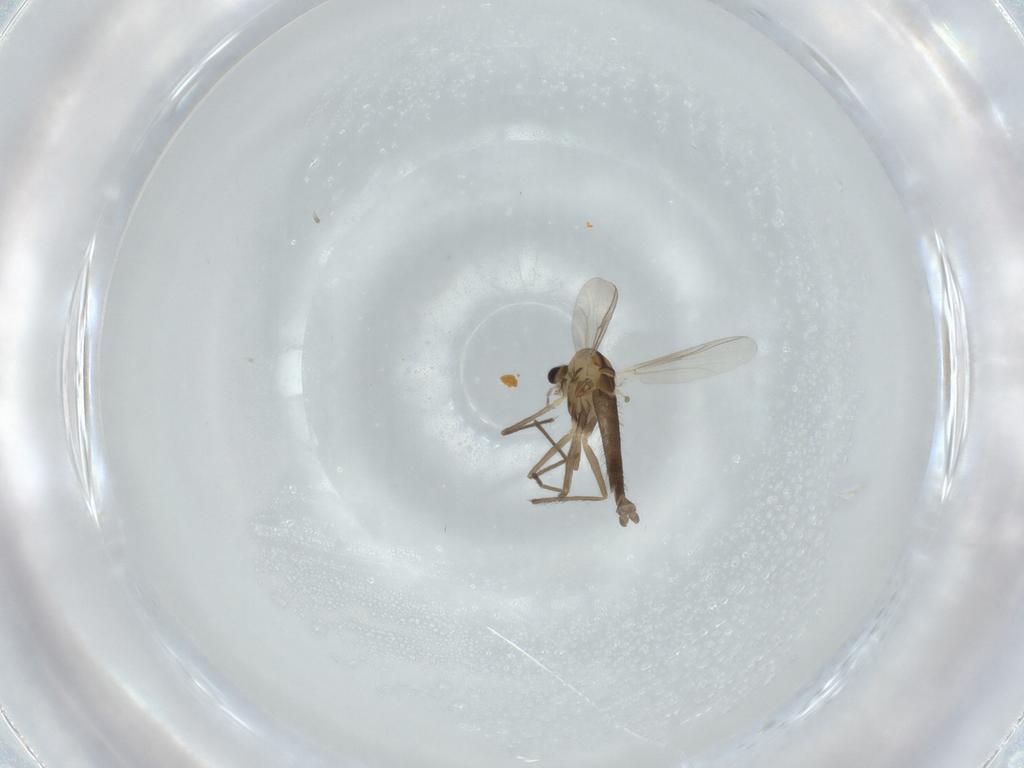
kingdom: Animalia
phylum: Arthropoda
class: Insecta
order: Diptera
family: Chironomidae
